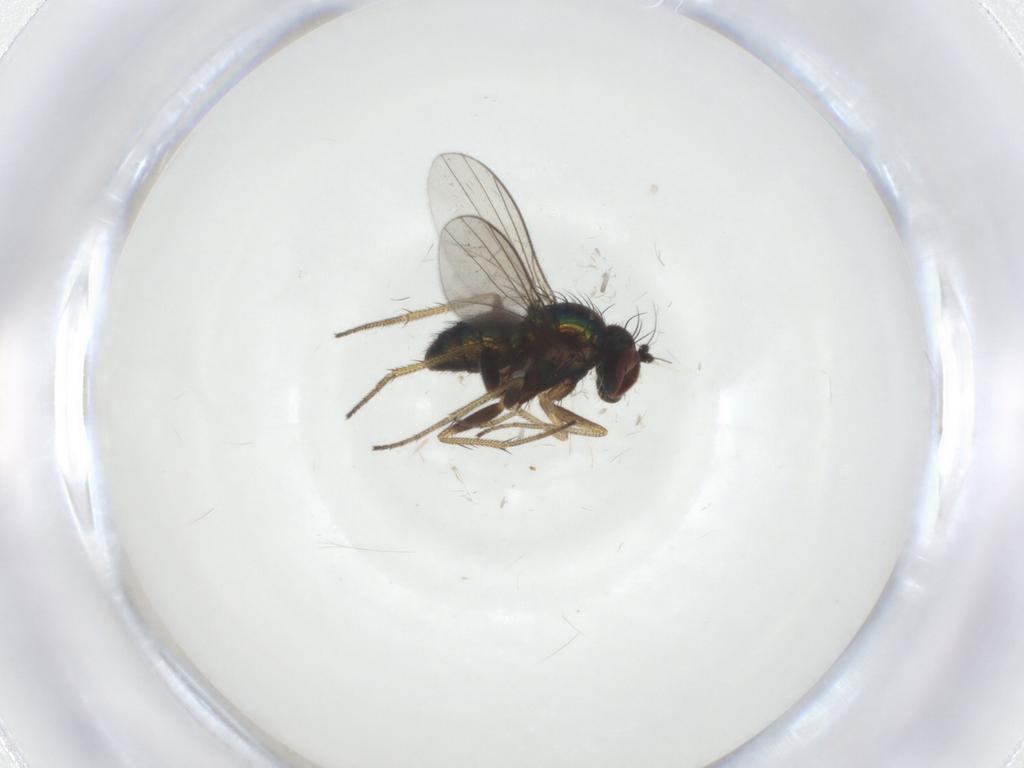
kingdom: Animalia
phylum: Arthropoda
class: Insecta
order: Diptera
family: Dolichopodidae
